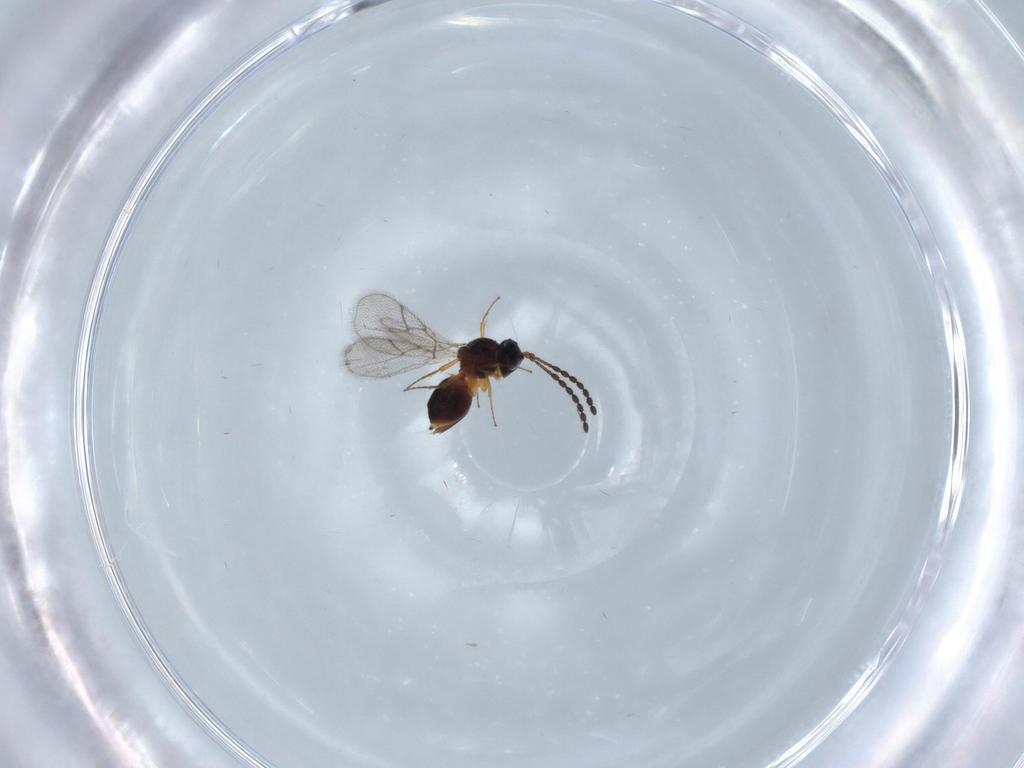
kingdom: Animalia
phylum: Arthropoda
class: Insecta
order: Hymenoptera
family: Figitidae
